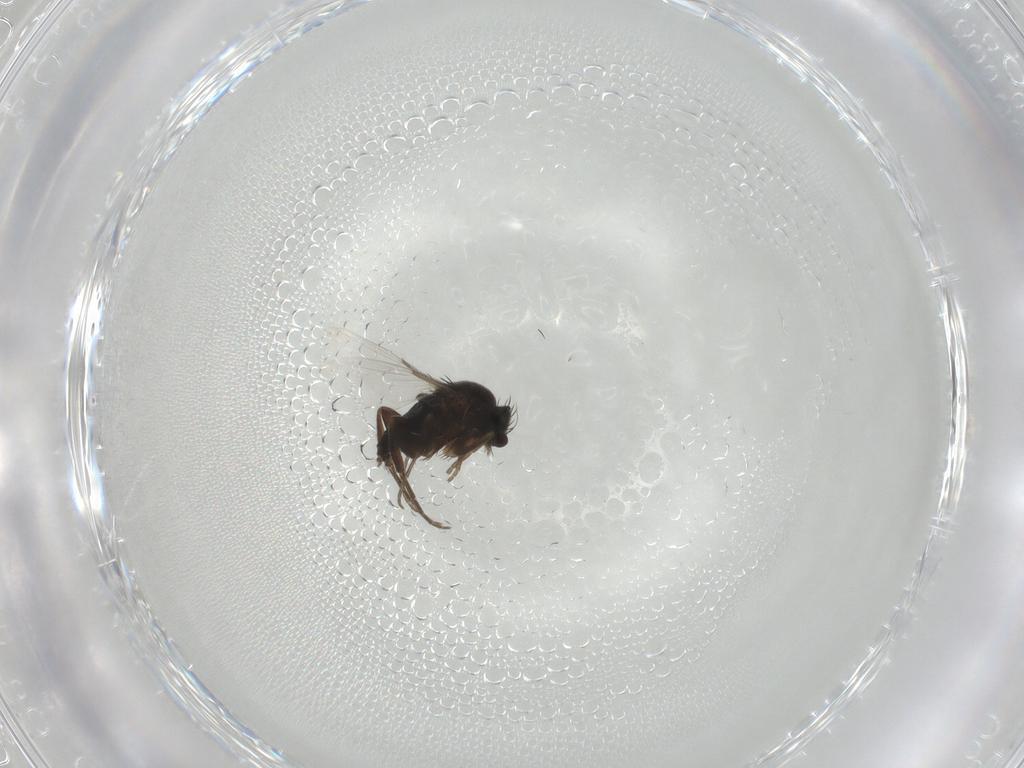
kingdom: Animalia
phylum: Arthropoda
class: Insecta
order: Diptera
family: Phoridae
